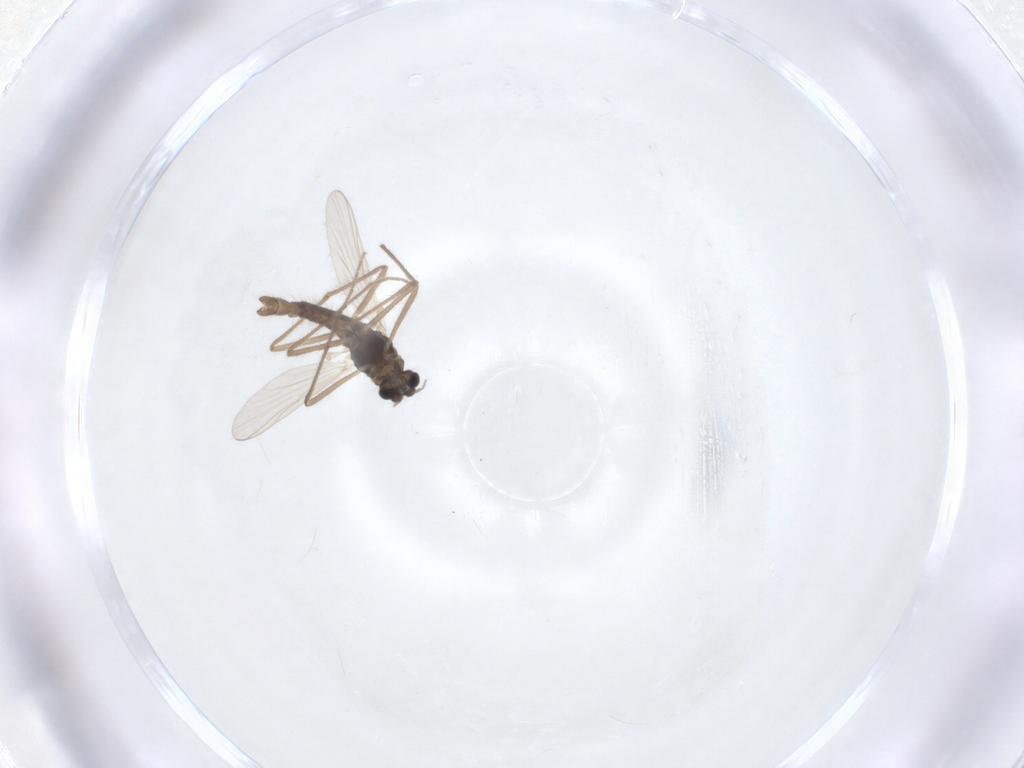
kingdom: Animalia
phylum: Arthropoda
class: Insecta
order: Diptera
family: Chironomidae
